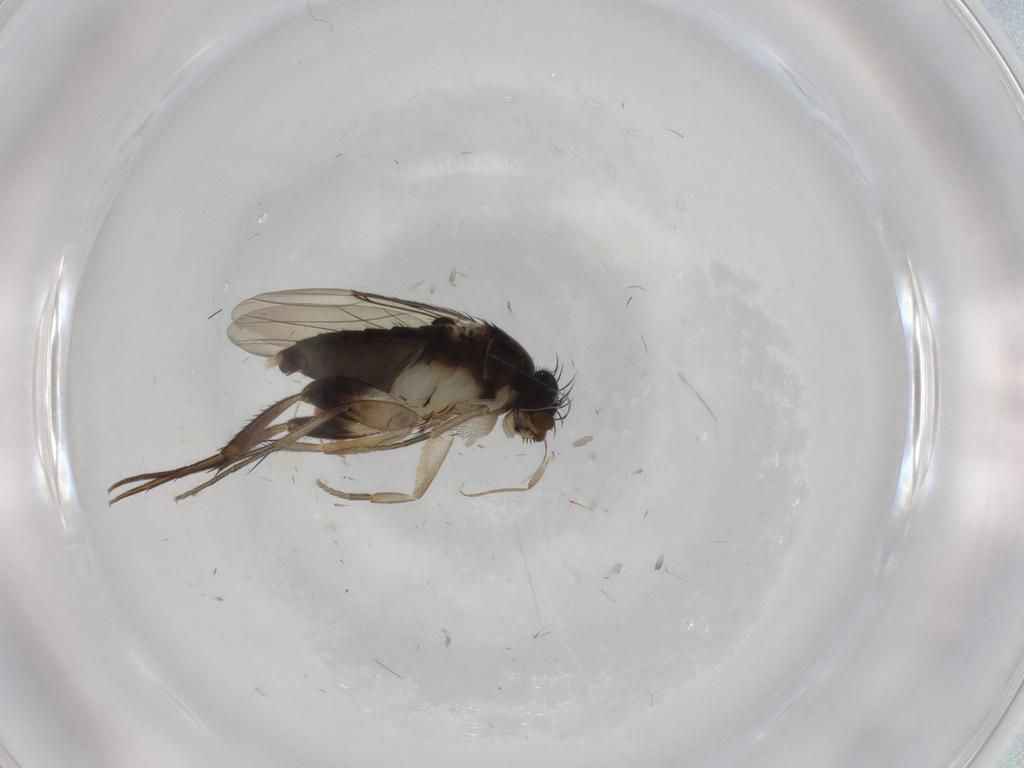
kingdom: Animalia
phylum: Arthropoda
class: Insecta
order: Diptera
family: Phoridae
